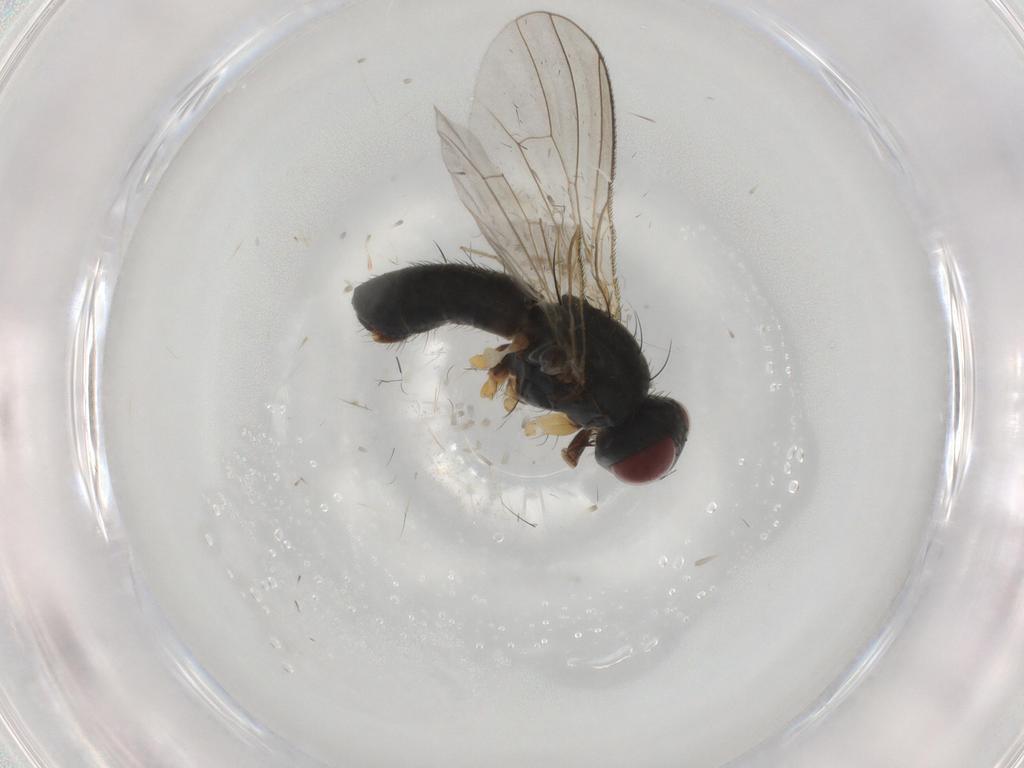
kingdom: Animalia
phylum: Arthropoda
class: Insecta
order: Diptera
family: Muscidae
